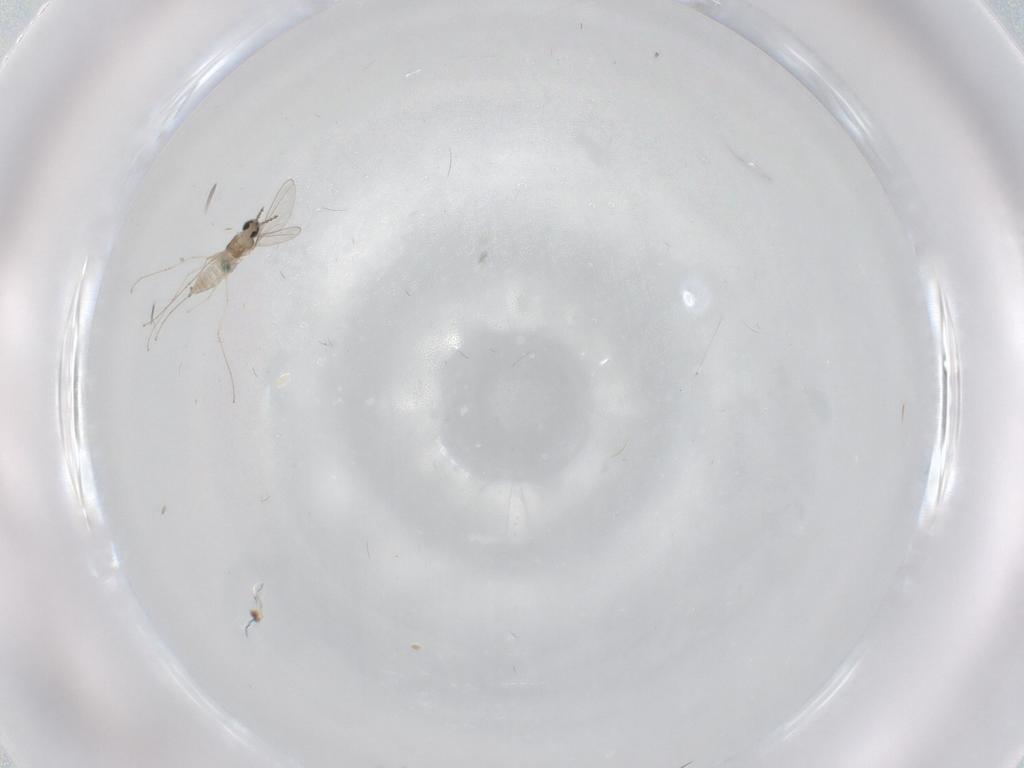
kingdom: Animalia
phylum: Arthropoda
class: Insecta
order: Diptera
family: Cecidomyiidae
